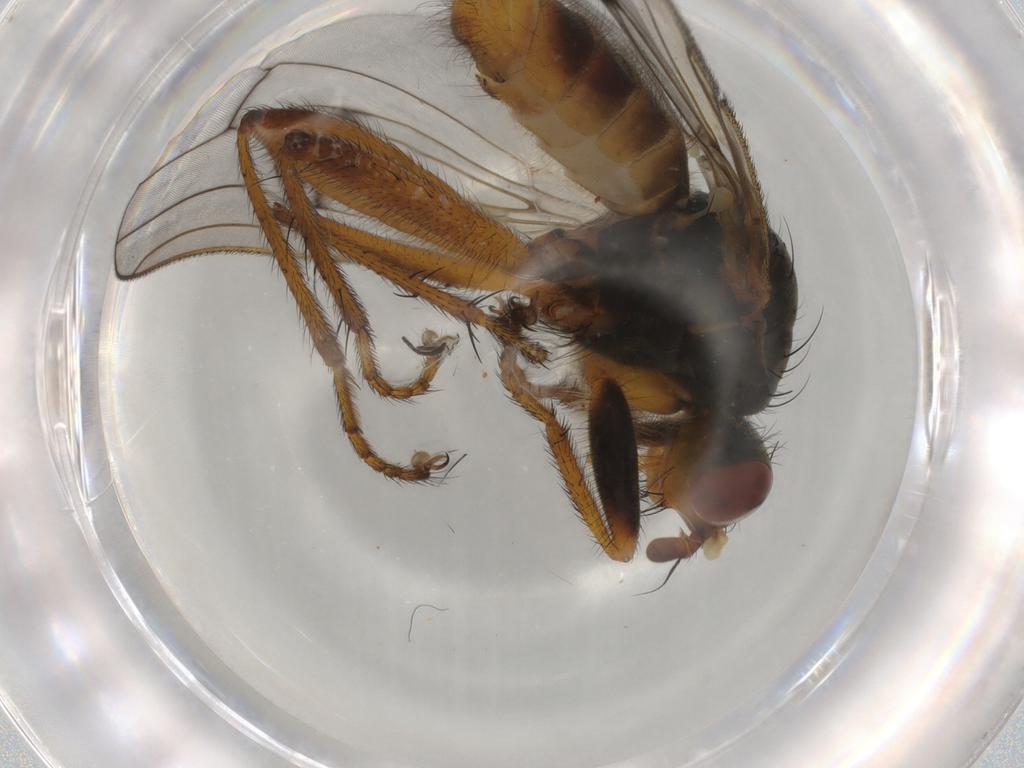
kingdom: Animalia
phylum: Arthropoda
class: Insecta
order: Diptera
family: Scathophagidae
